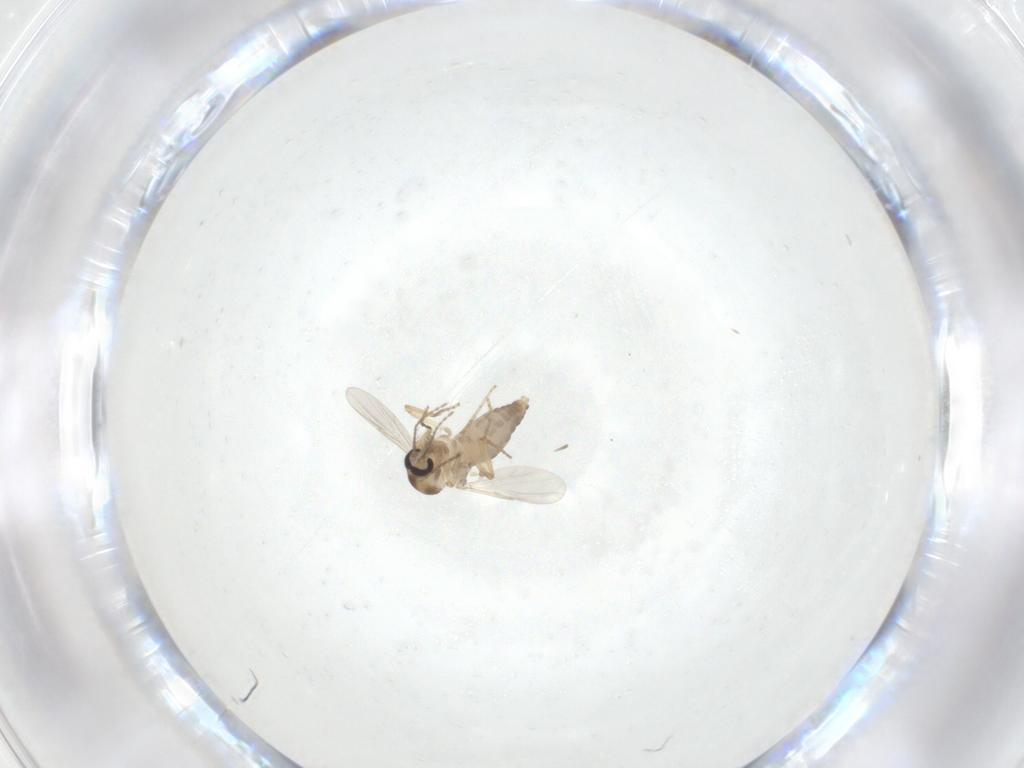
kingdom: Animalia
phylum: Arthropoda
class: Insecta
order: Diptera
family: Ceratopogonidae
